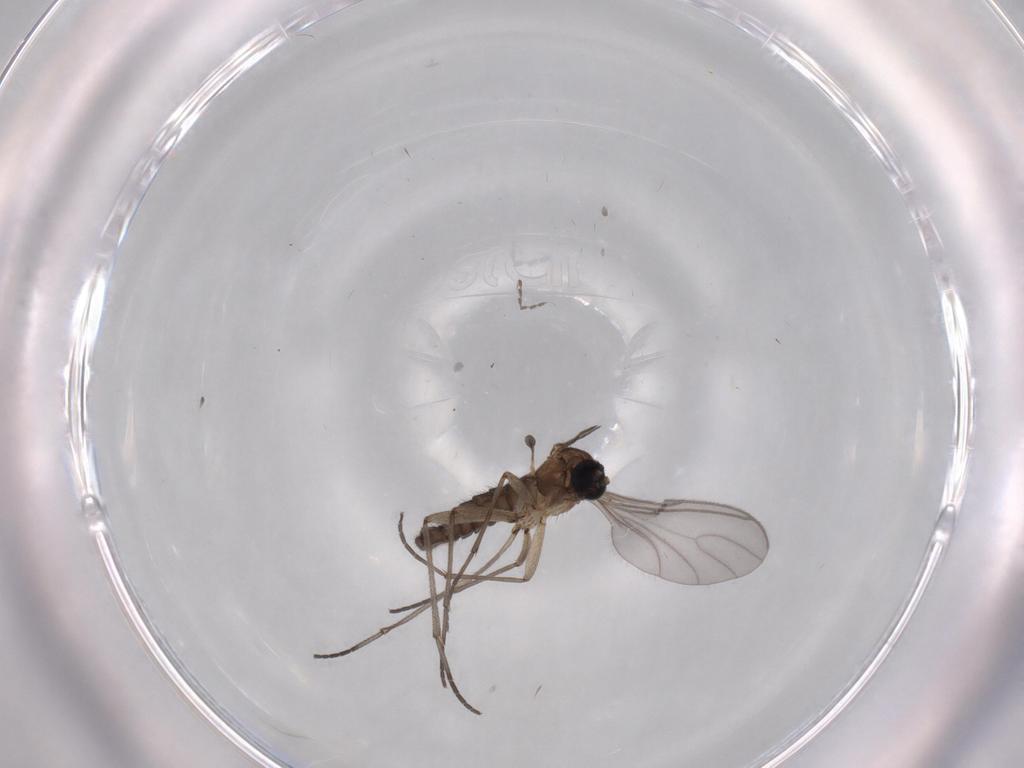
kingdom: Animalia
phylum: Arthropoda
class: Insecta
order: Diptera
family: Sciaridae
